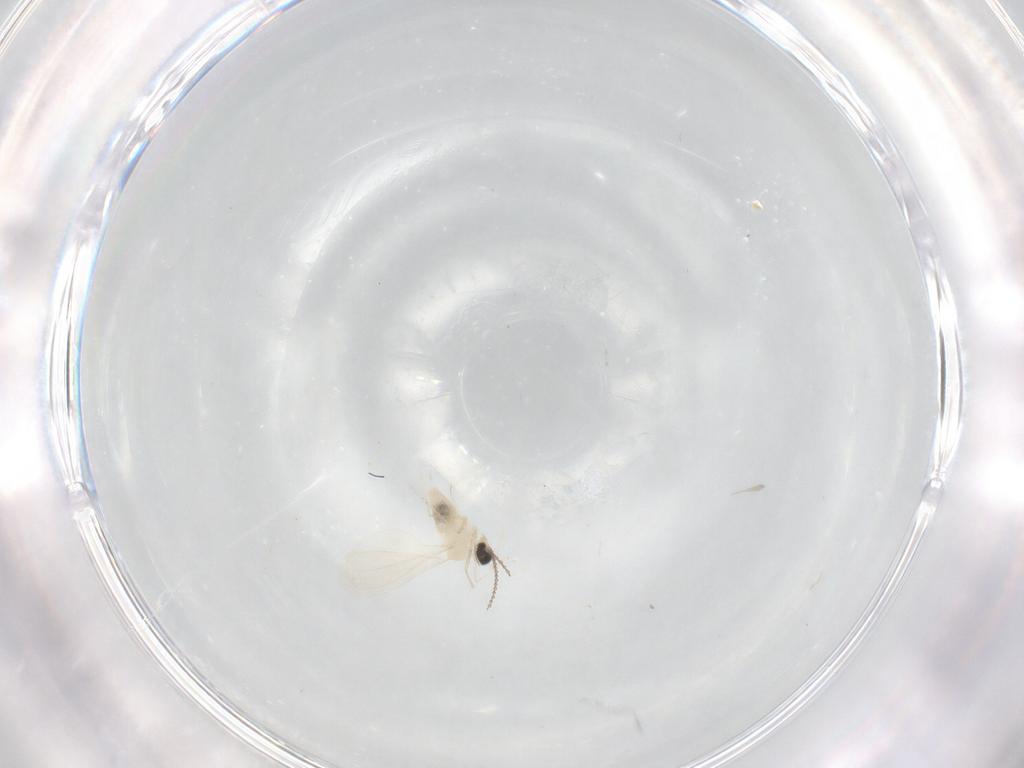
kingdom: Animalia
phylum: Arthropoda
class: Insecta
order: Diptera
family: Cecidomyiidae
